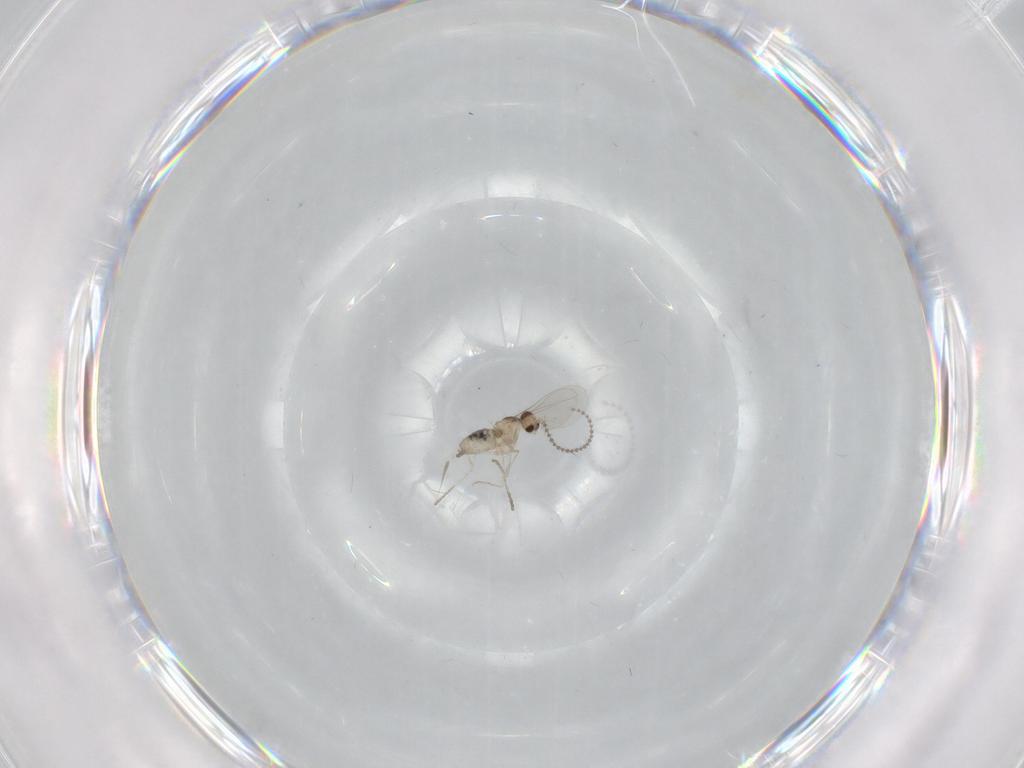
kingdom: Animalia
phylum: Arthropoda
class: Insecta
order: Diptera
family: Cecidomyiidae
